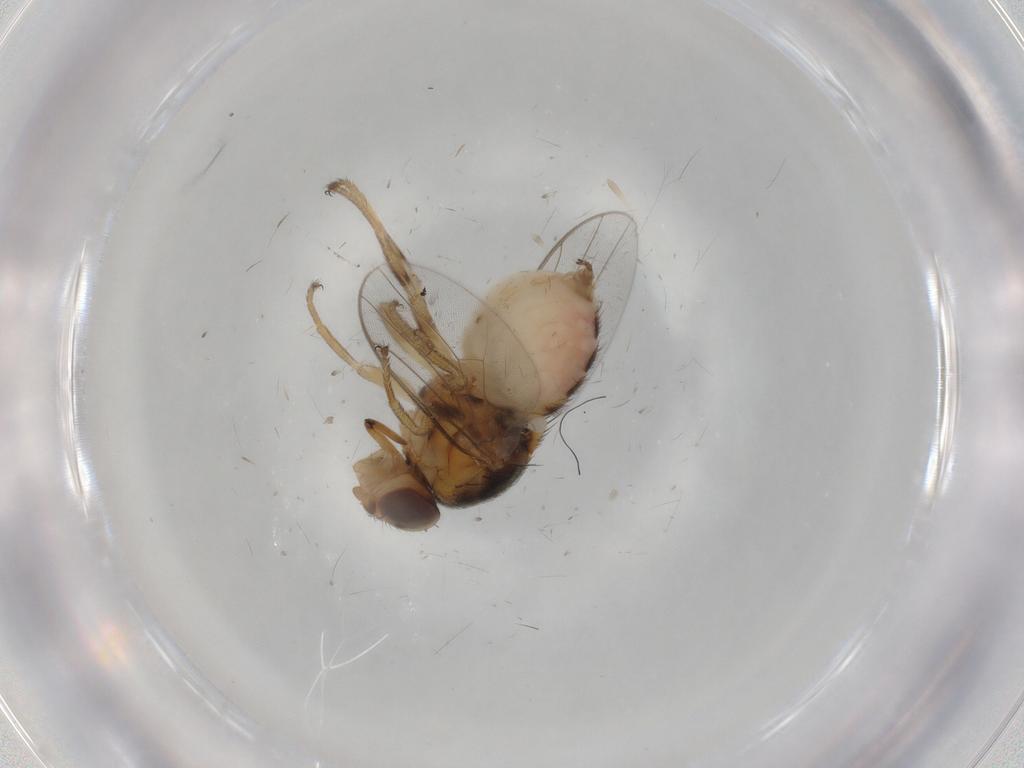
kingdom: Animalia
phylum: Arthropoda
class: Insecta
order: Diptera
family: Chloropidae
